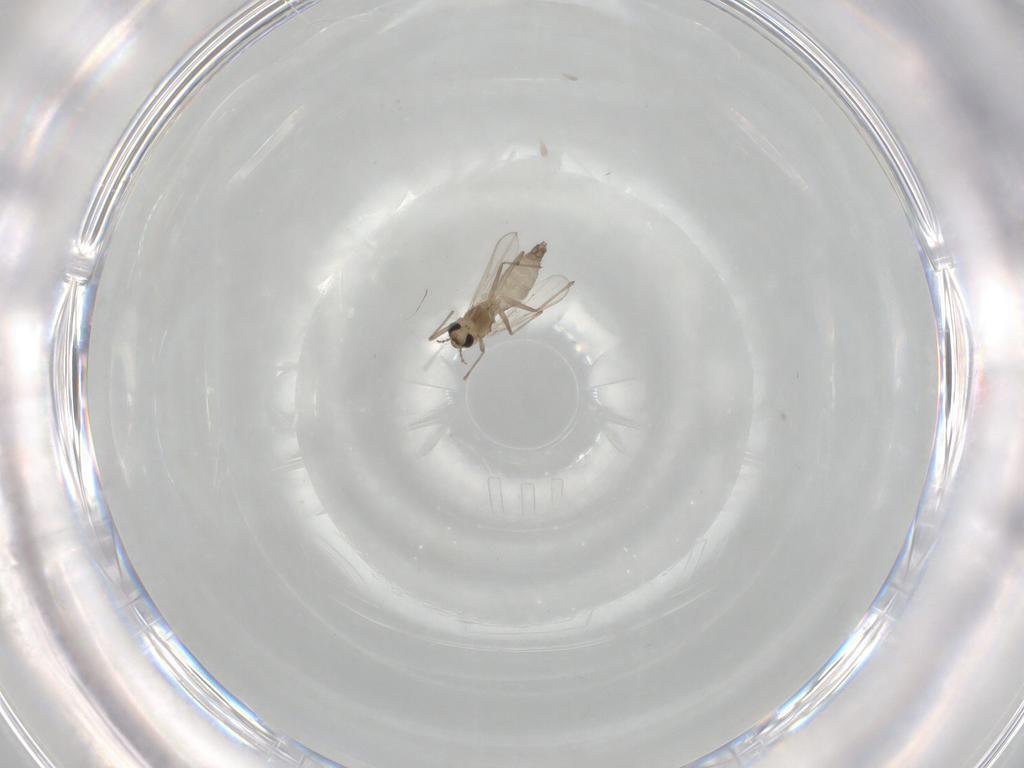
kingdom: Animalia
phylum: Arthropoda
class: Insecta
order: Diptera
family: Chironomidae
